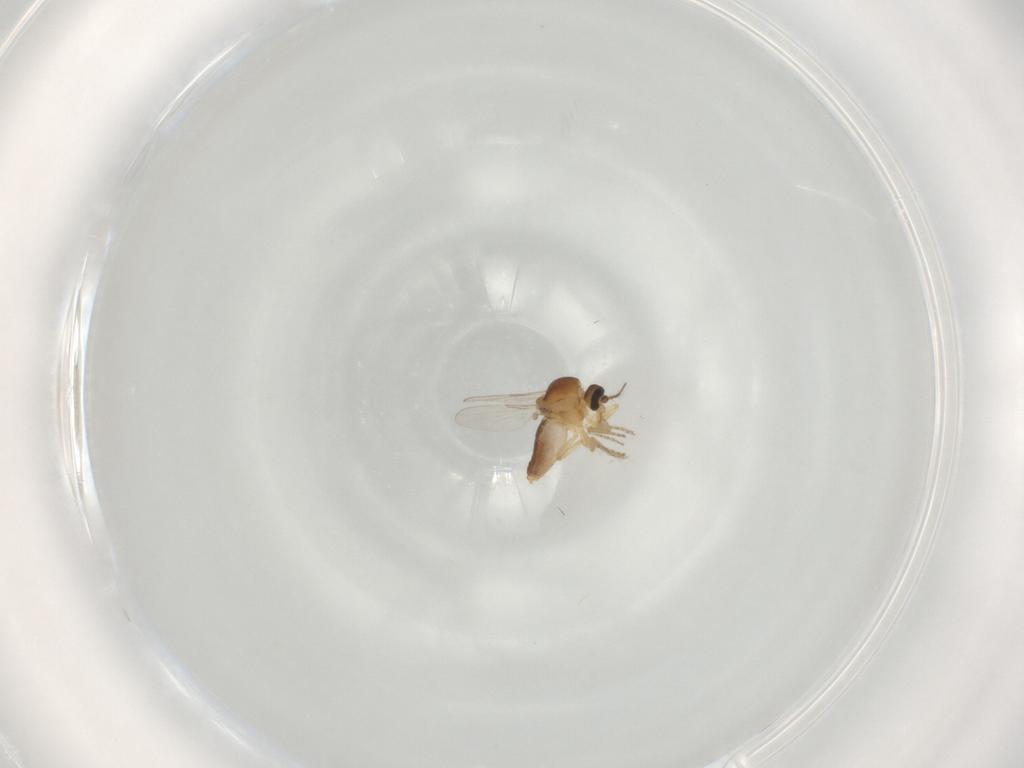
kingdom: Animalia
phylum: Arthropoda
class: Insecta
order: Diptera
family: Ceratopogonidae
